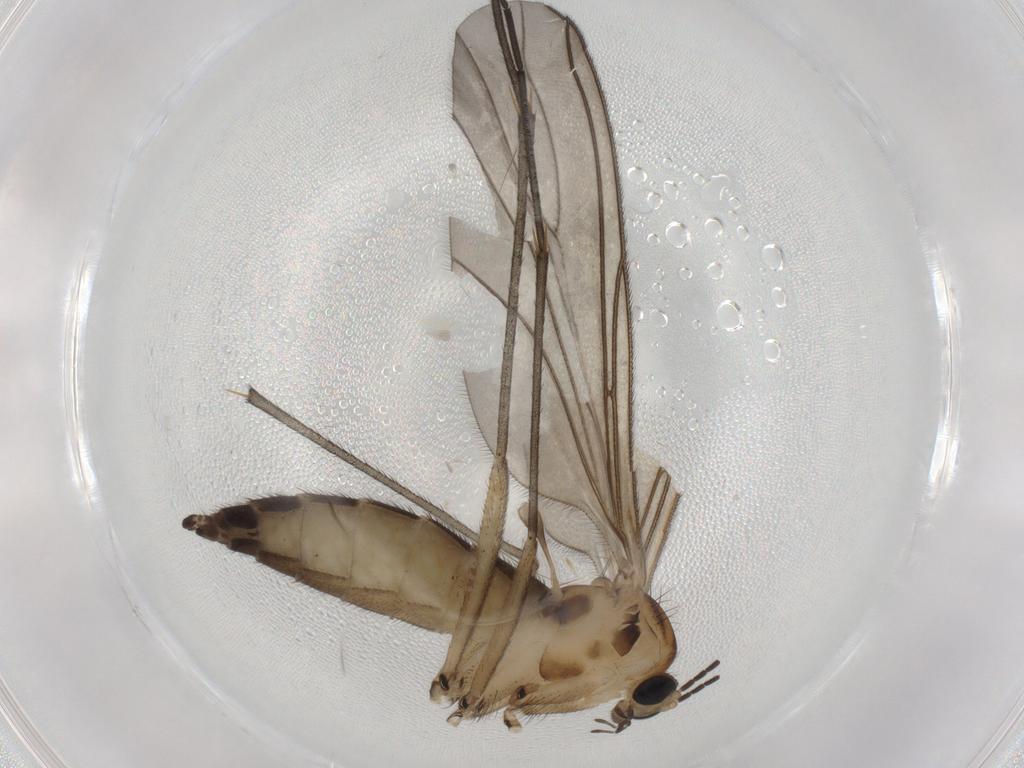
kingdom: Animalia
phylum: Arthropoda
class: Insecta
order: Diptera
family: Sciaridae
